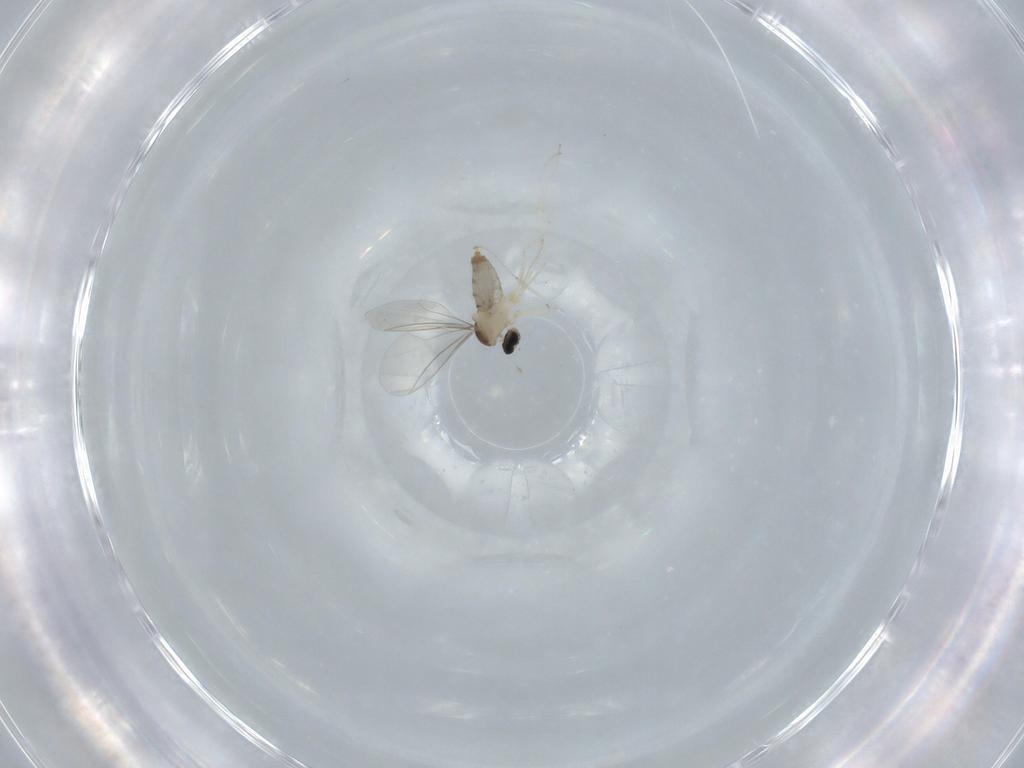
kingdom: Animalia
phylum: Arthropoda
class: Insecta
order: Diptera
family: Cecidomyiidae
